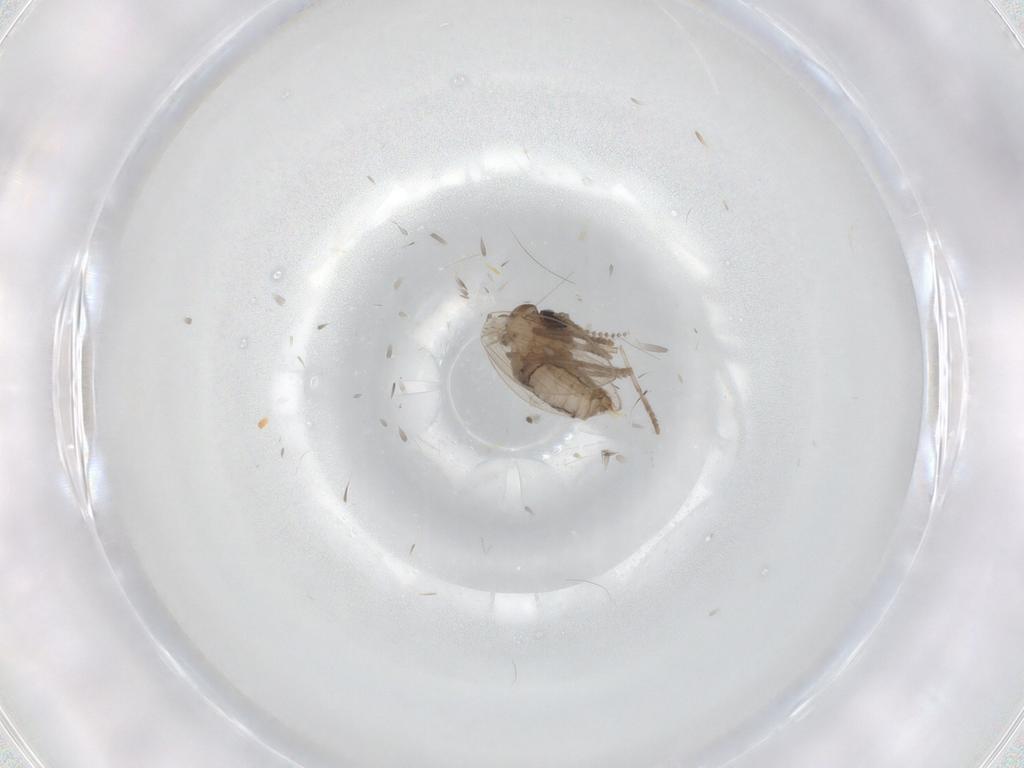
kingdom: Animalia
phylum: Arthropoda
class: Insecta
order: Diptera
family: Psychodidae
